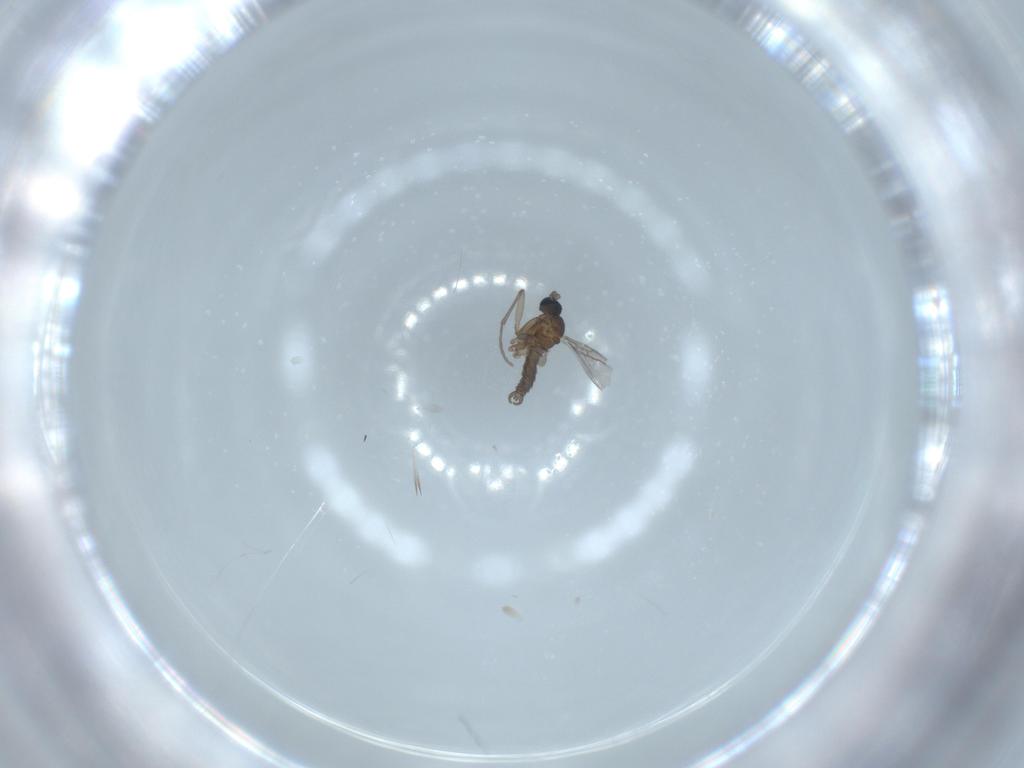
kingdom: Animalia
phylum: Arthropoda
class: Insecta
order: Diptera
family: Sciaridae
